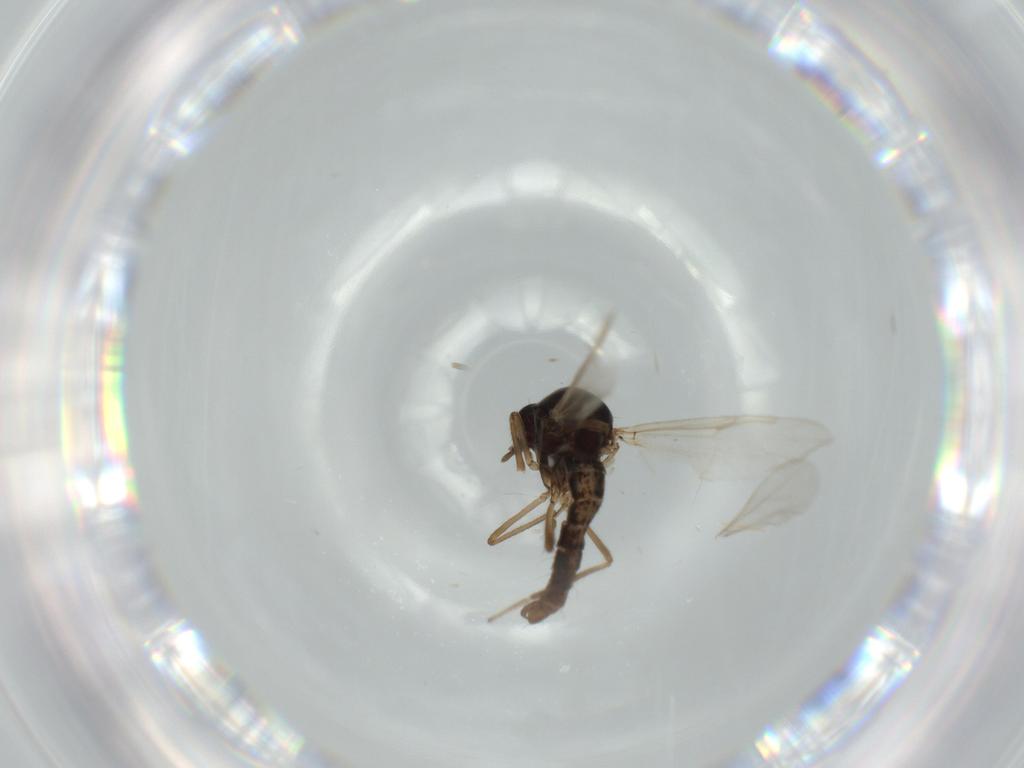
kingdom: Animalia
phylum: Arthropoda
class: Insecta
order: Diptera
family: Ceratopogonidae
